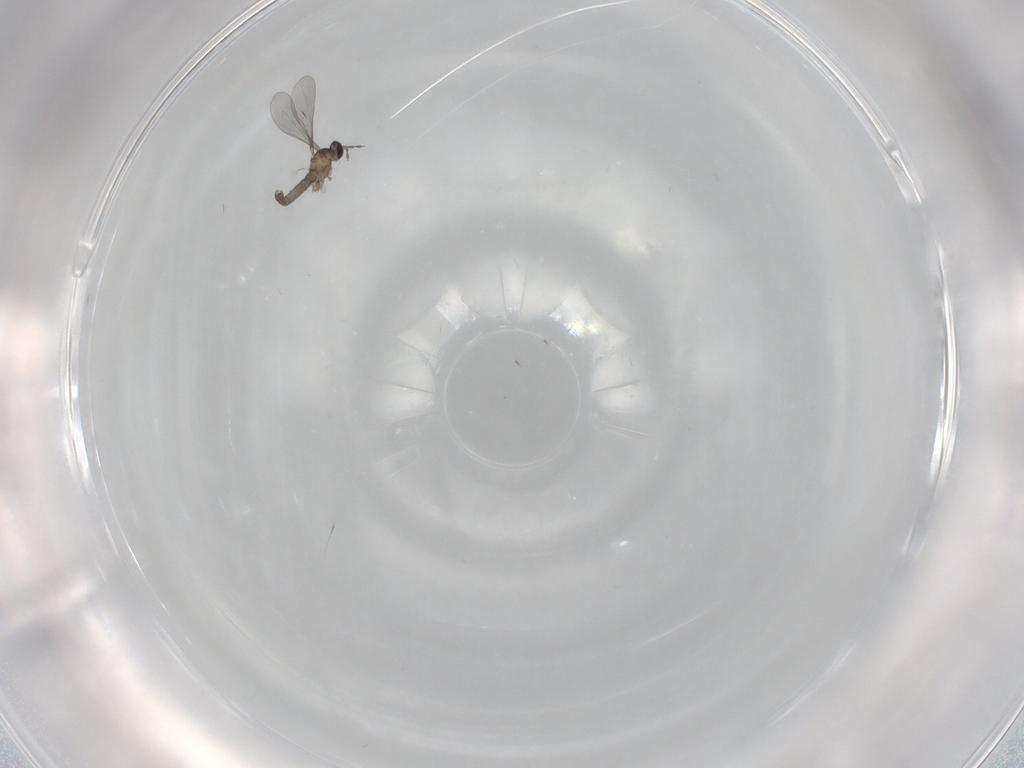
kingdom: Animalia
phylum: Arthropoda
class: Insecta
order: Diptera
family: Cecidomyiidae
